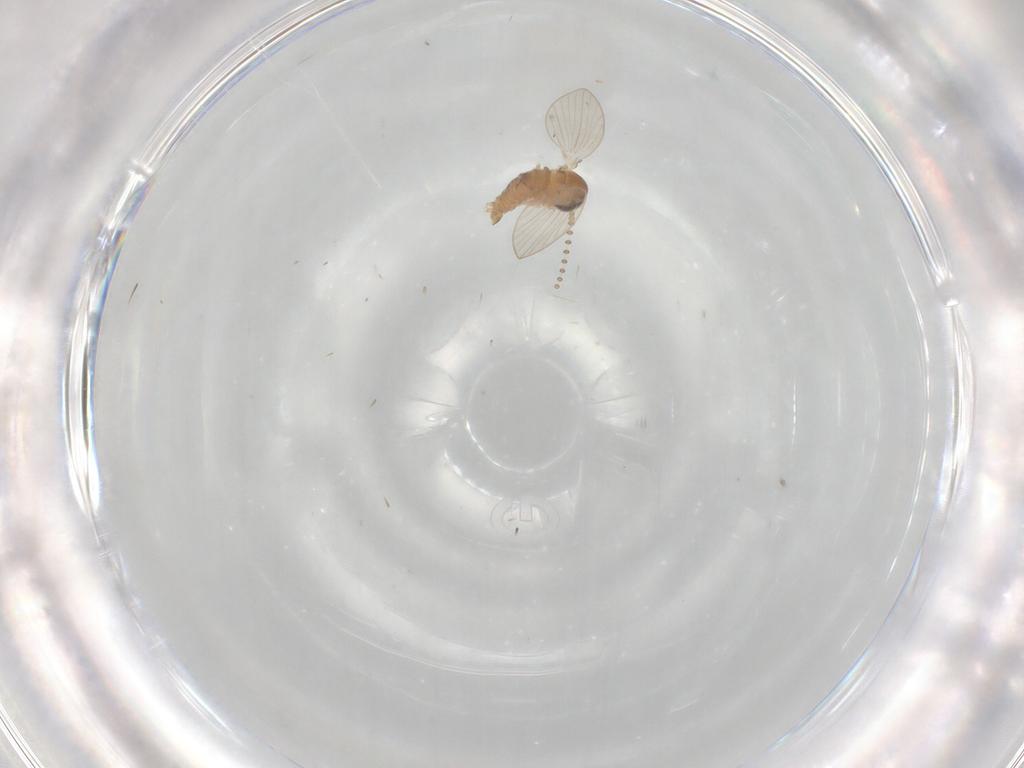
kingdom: Animalia
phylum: Arthropoda
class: Insecta
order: Diptera
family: Psychodidae
